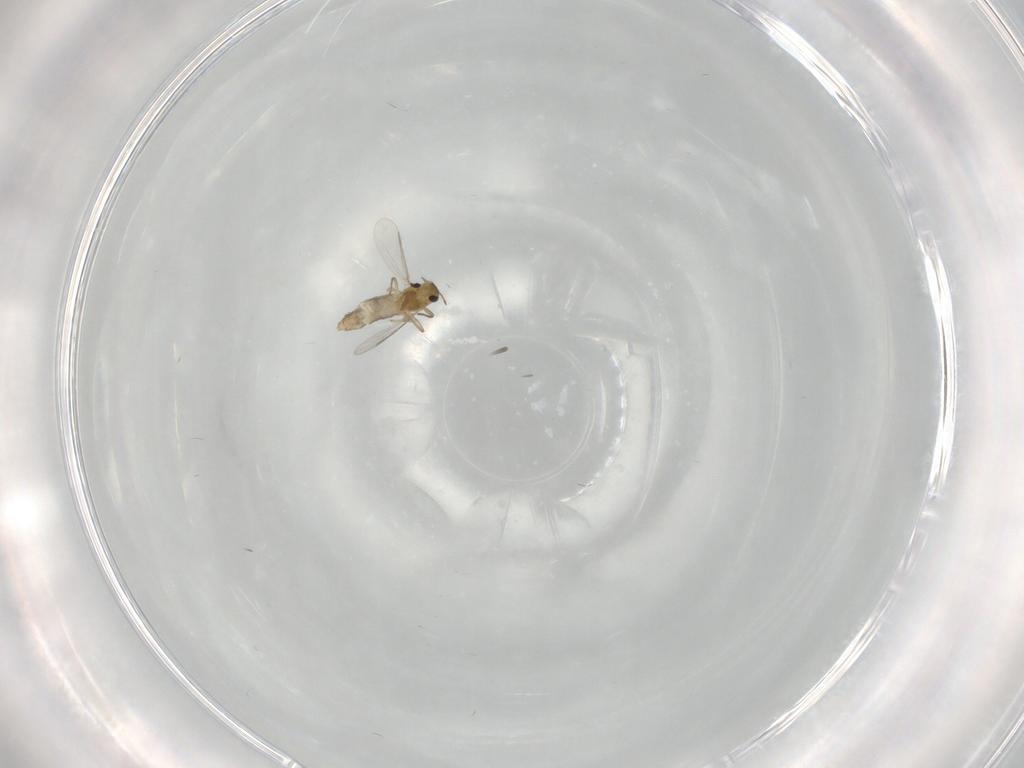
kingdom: Animalia
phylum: Arthropoda
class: Insecta
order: Diptera
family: Chironomidae
